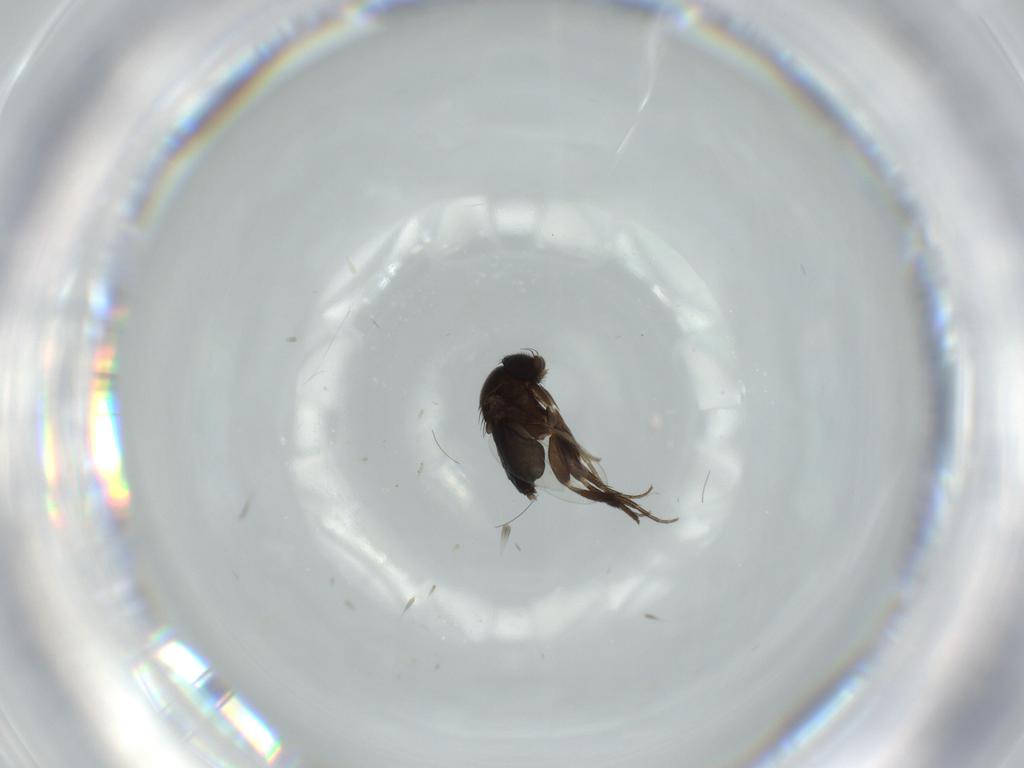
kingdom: Animalia
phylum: Arthropoda
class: Insecta
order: Diptera
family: Phoridae
